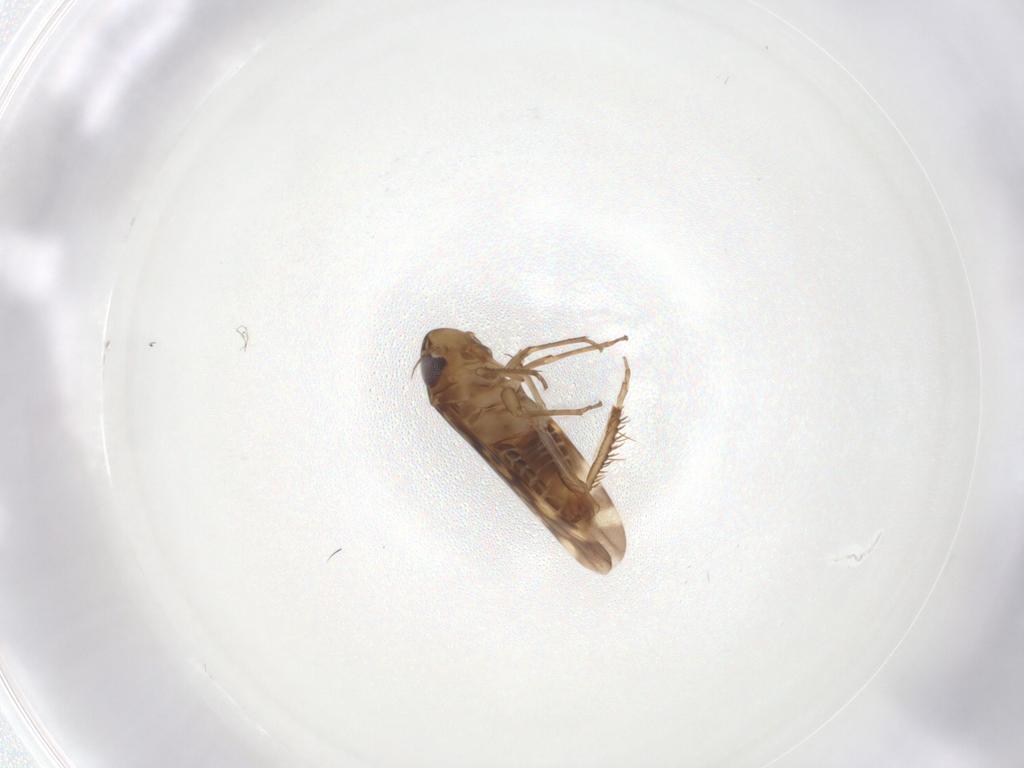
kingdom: Animalia
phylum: Arthropoda
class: Insecta
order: Hemiptera
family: Cicadellidae
